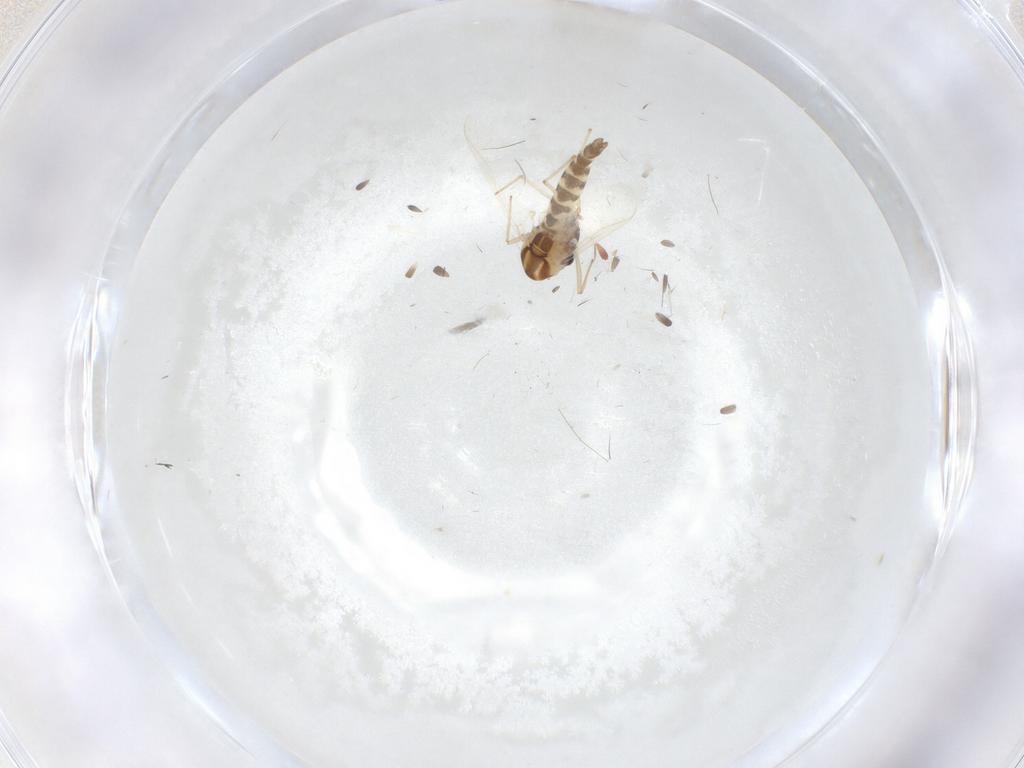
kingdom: Animalia
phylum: Arthropoda
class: Insecta
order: Diptera
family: Chironomidae
